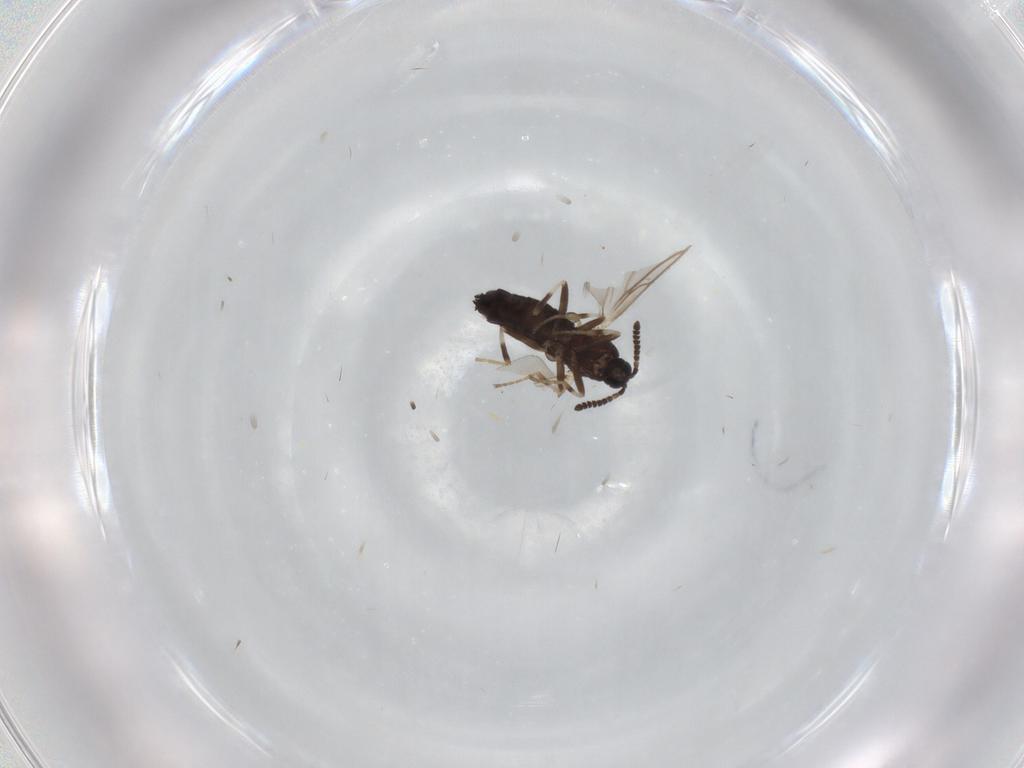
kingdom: Animalia
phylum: Arthropoda
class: Insecta
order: Diptera
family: Scatopsidae
